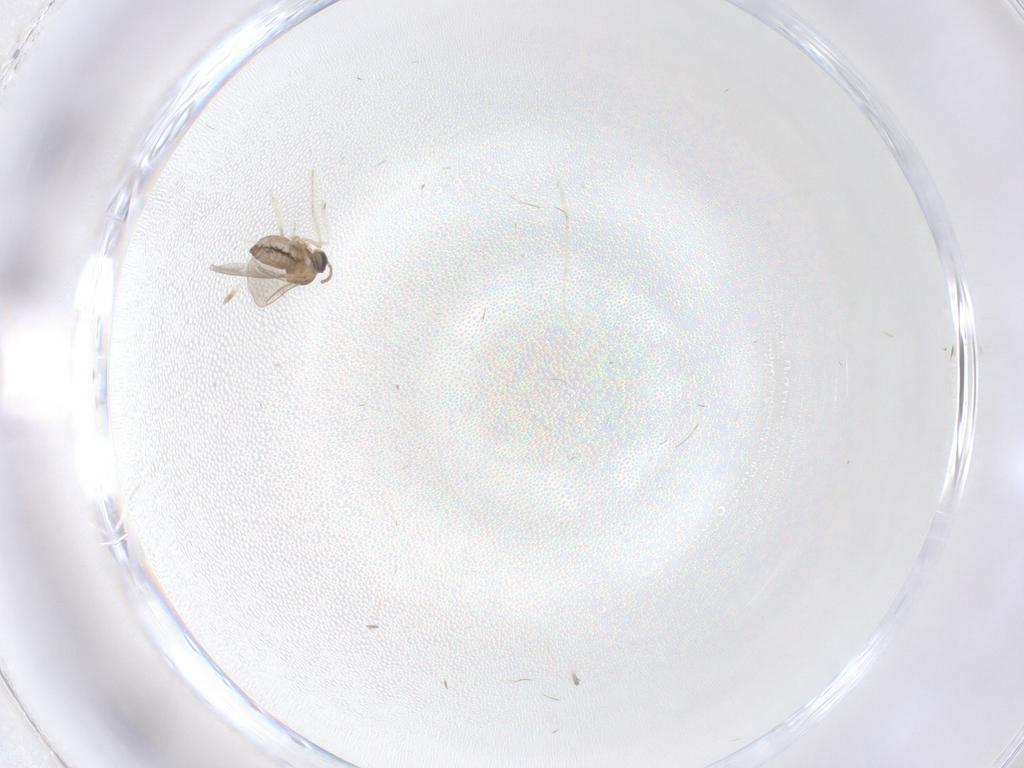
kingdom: Animalia
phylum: Arthropoda
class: Insecta
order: Diptera
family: Cecidomyiidae
